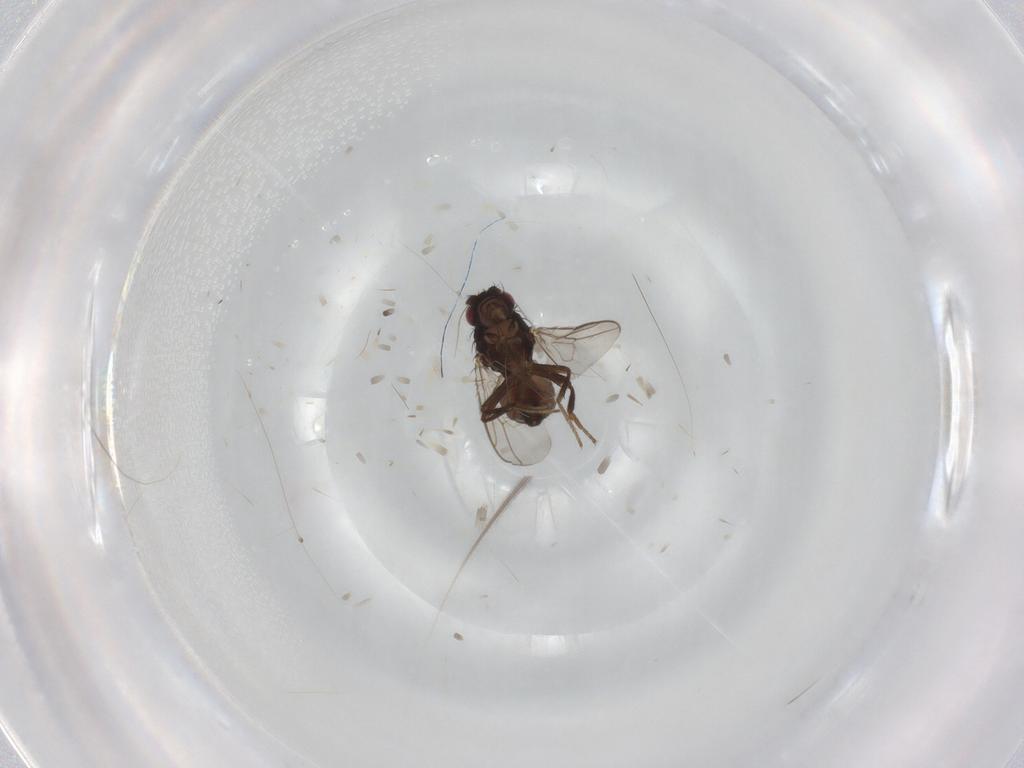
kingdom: Animalia
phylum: Arthropoda
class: Insecta
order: Diptera
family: Sphaeroceridae
